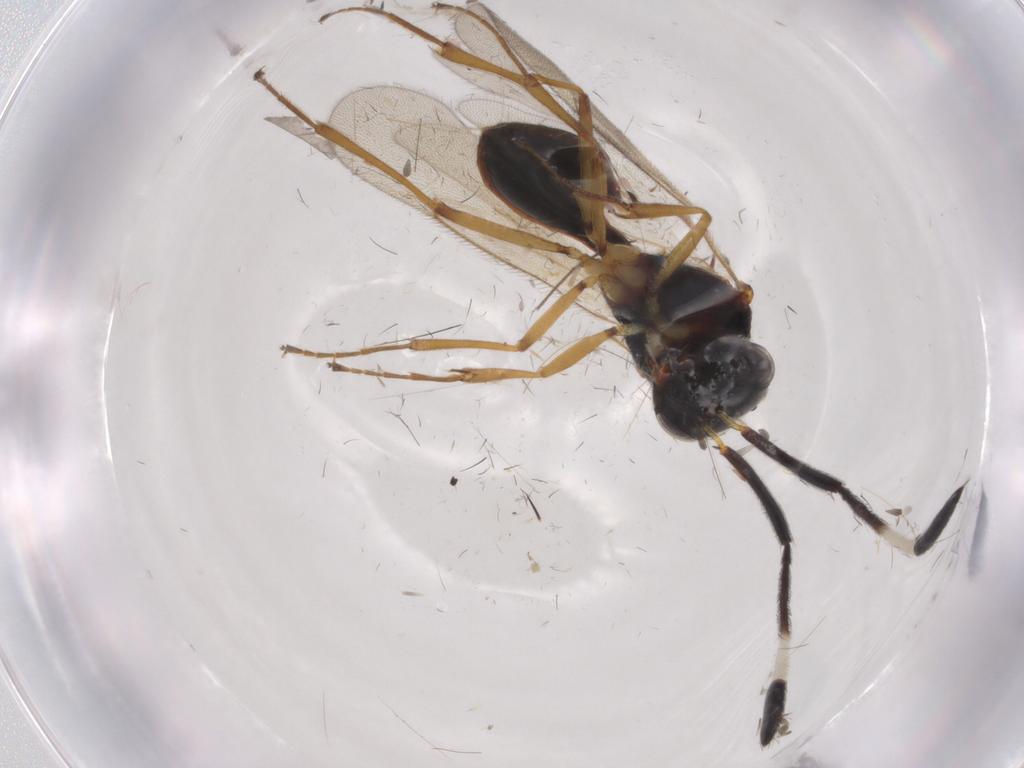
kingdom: Animalia
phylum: Arthropoda
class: Insecta
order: Hymenoptera
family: Scelionidae
